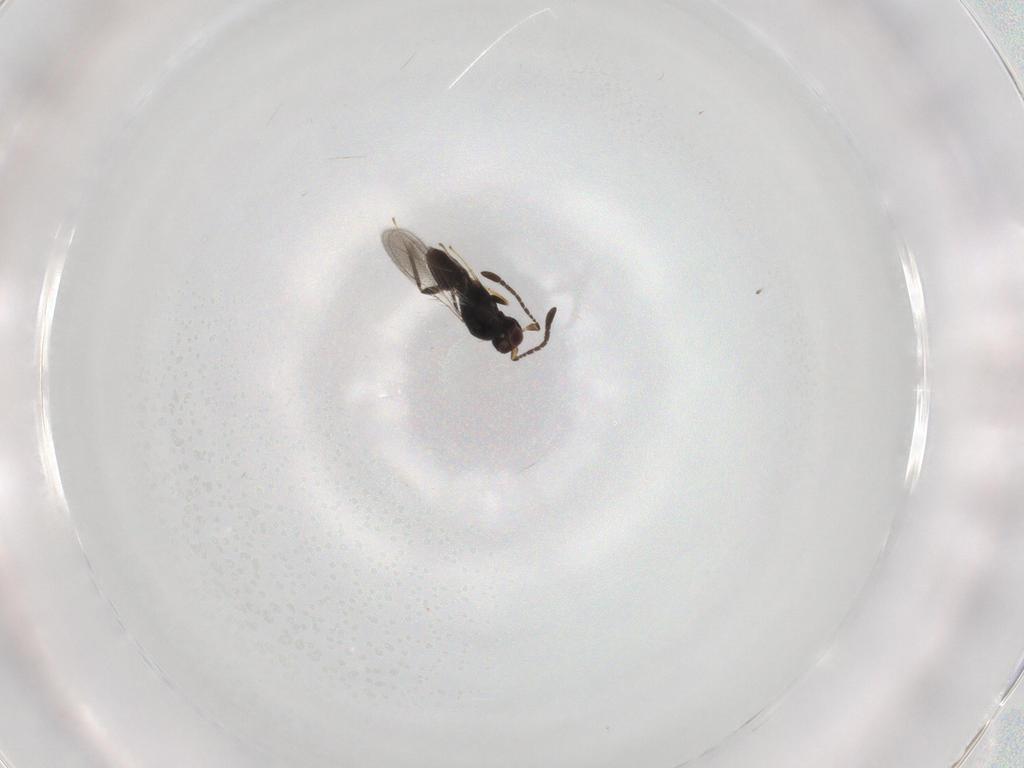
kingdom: Animalia
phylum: Arthropoda
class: Insecta
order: Hymenoptera
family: Mymaridae
